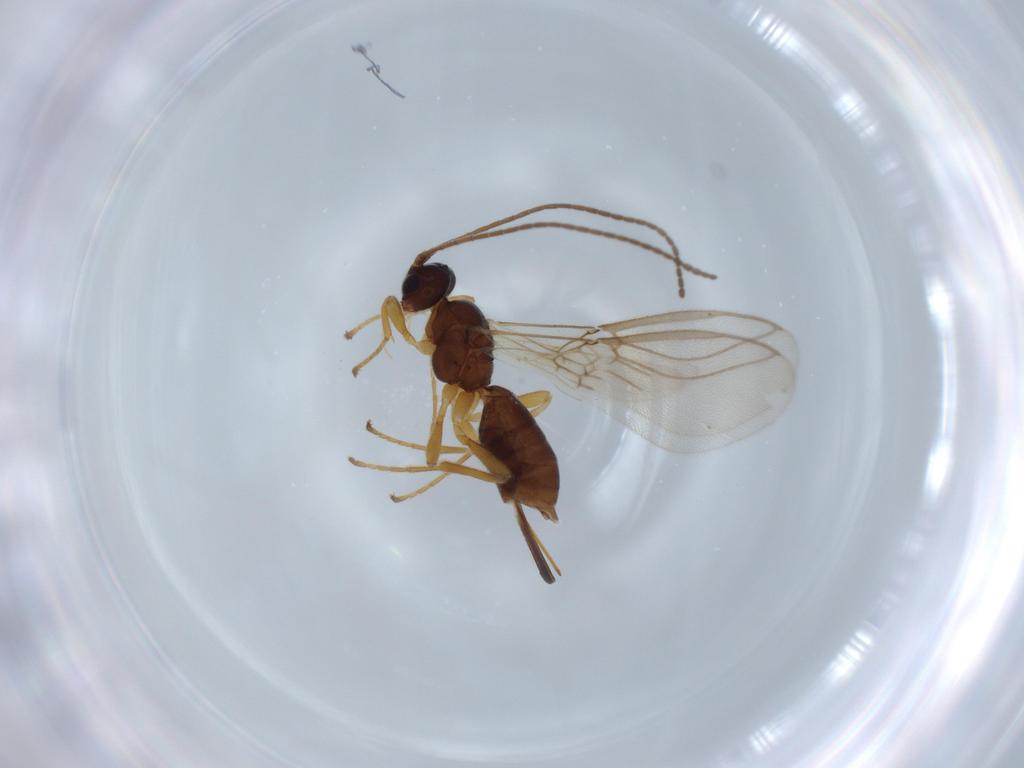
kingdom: Animalia
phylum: Arthropoda
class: Insecta
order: Hymenoptera
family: Braconidae
